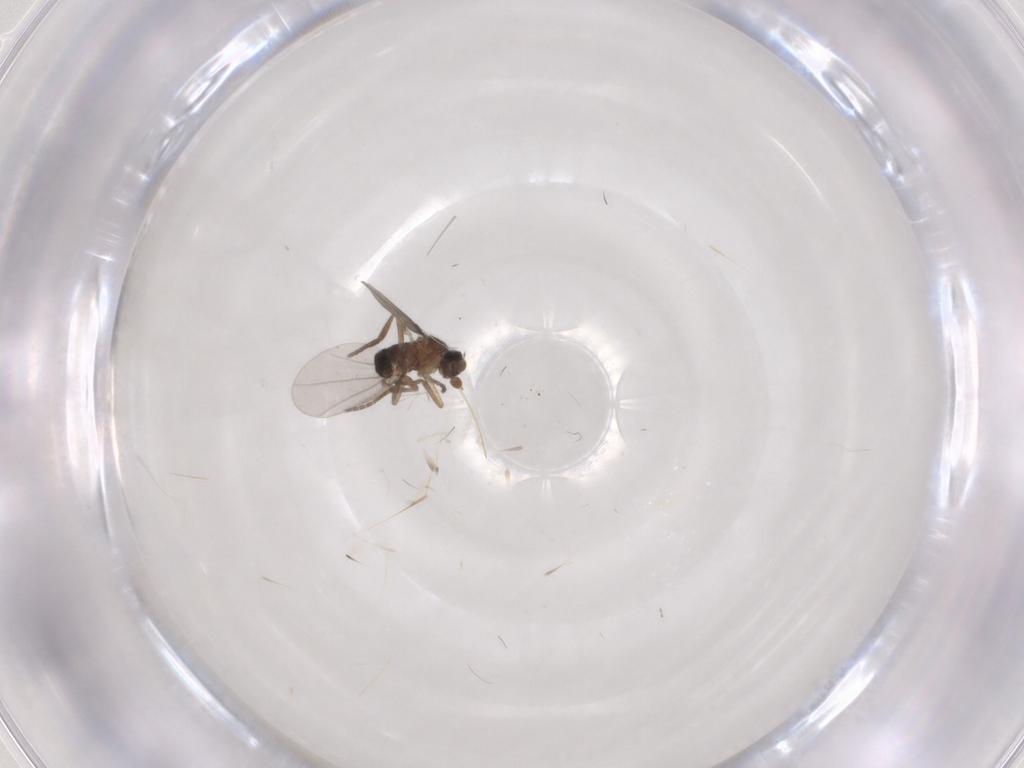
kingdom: Animalia
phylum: Arthropoda
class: Insecta
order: Diptera
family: Phoridae
